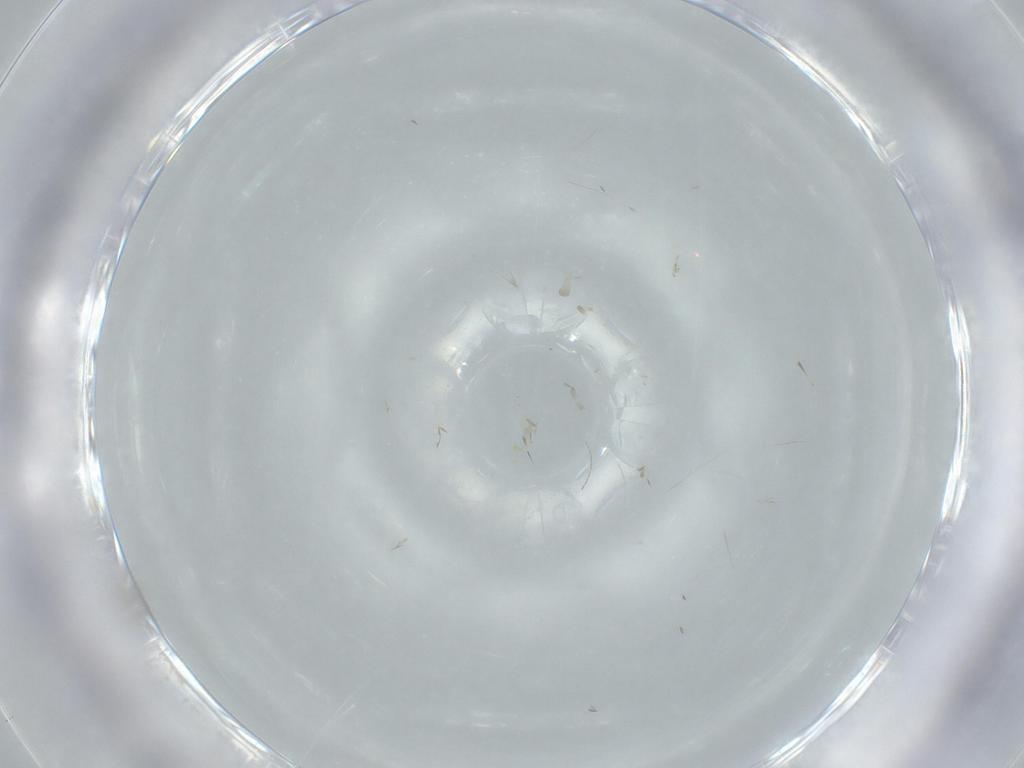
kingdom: Animalia
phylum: Arthropoda
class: Insecta
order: Psocodea
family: Liposcelididae
